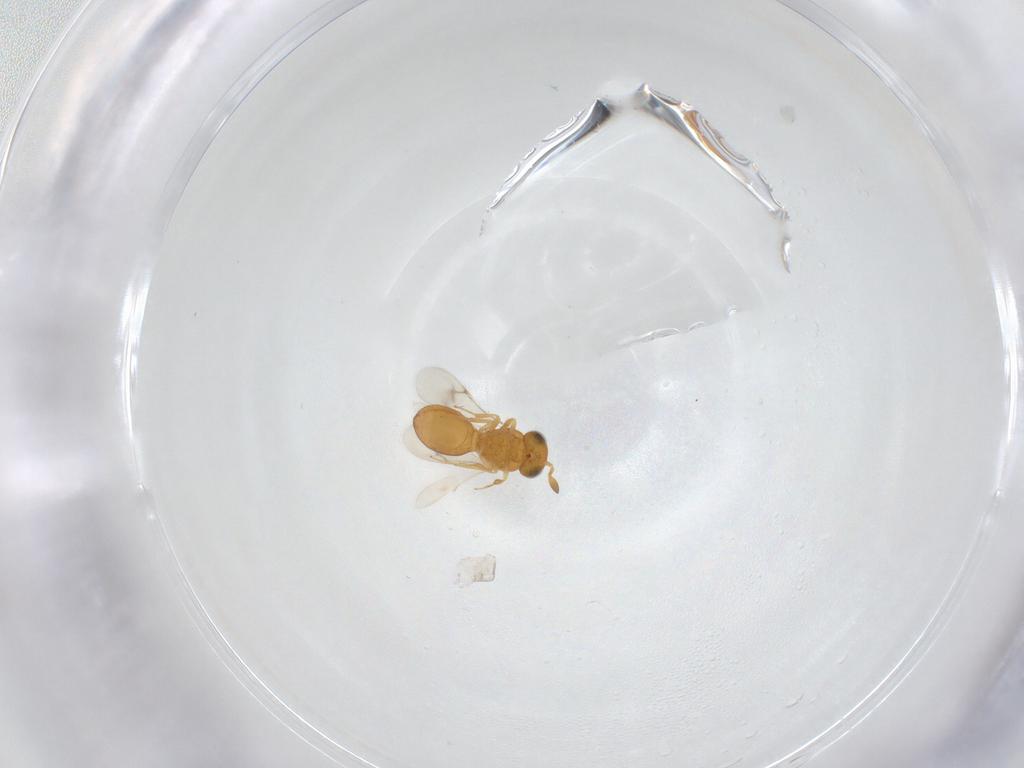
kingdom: Animalia
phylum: Arthropoda
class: Insecta
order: Hymenoptera
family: Scelionidae
